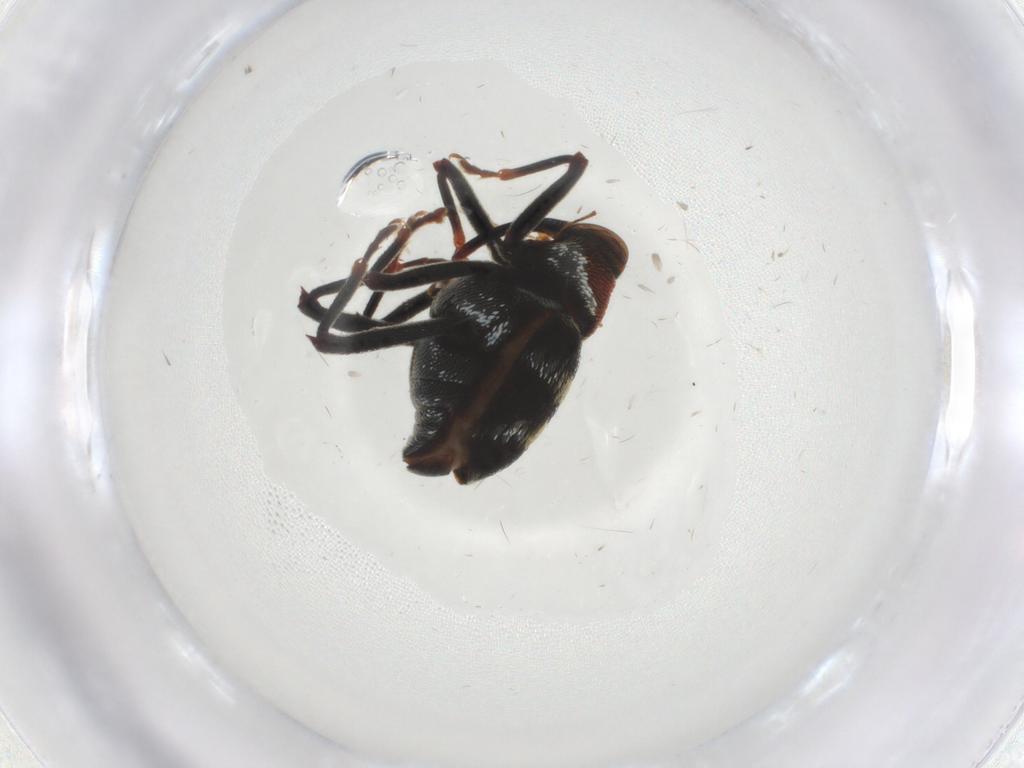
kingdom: Animalia
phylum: Arthropoda
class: Insecta
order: Coleoptera
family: Curculionidae
